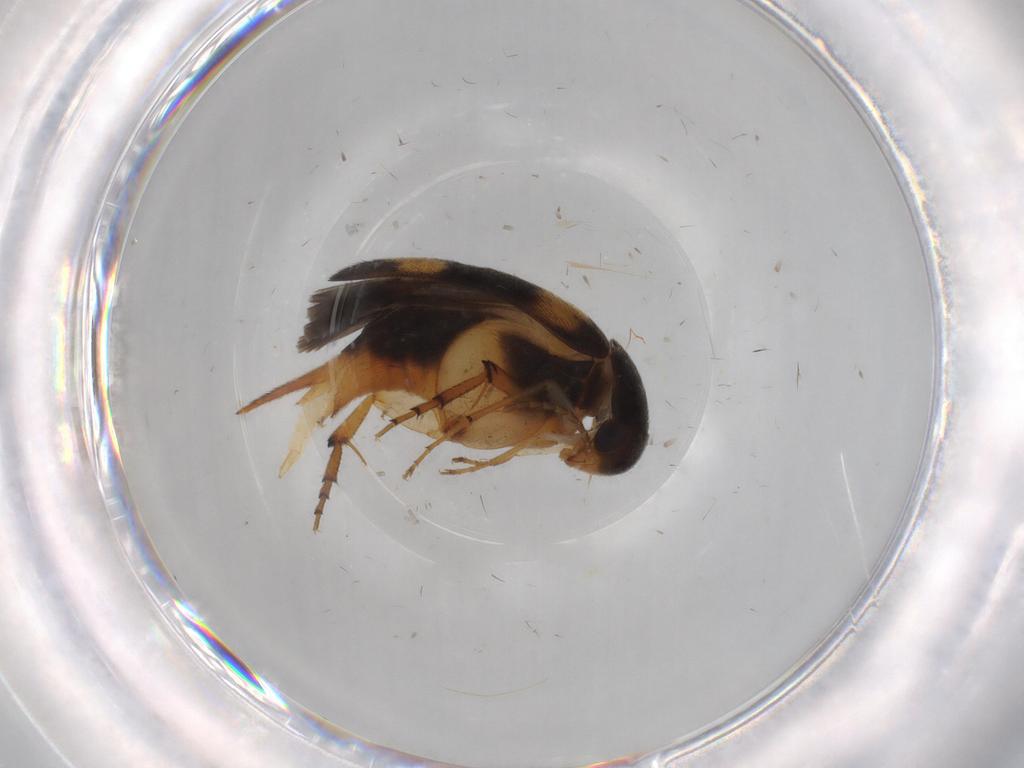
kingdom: Animalia
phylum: Arthropoda
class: Insecta
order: Coleoptera
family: Mordellidae
